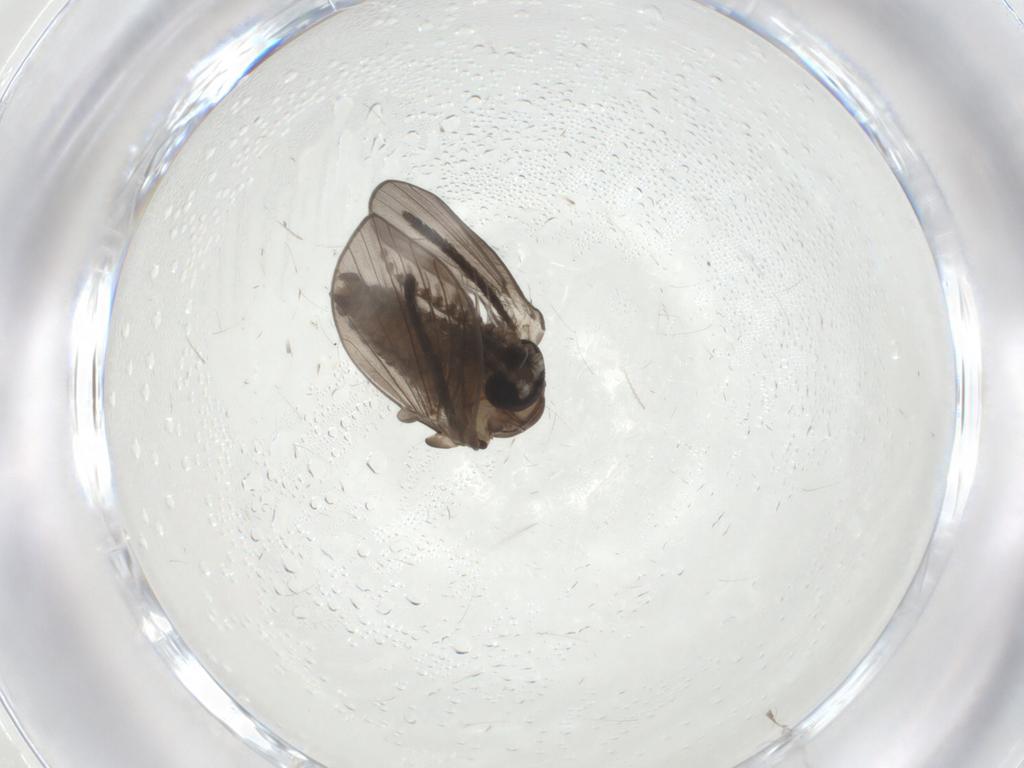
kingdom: Animalia
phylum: Arthropoda
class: Insecta
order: Diptera
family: Psychodidae
